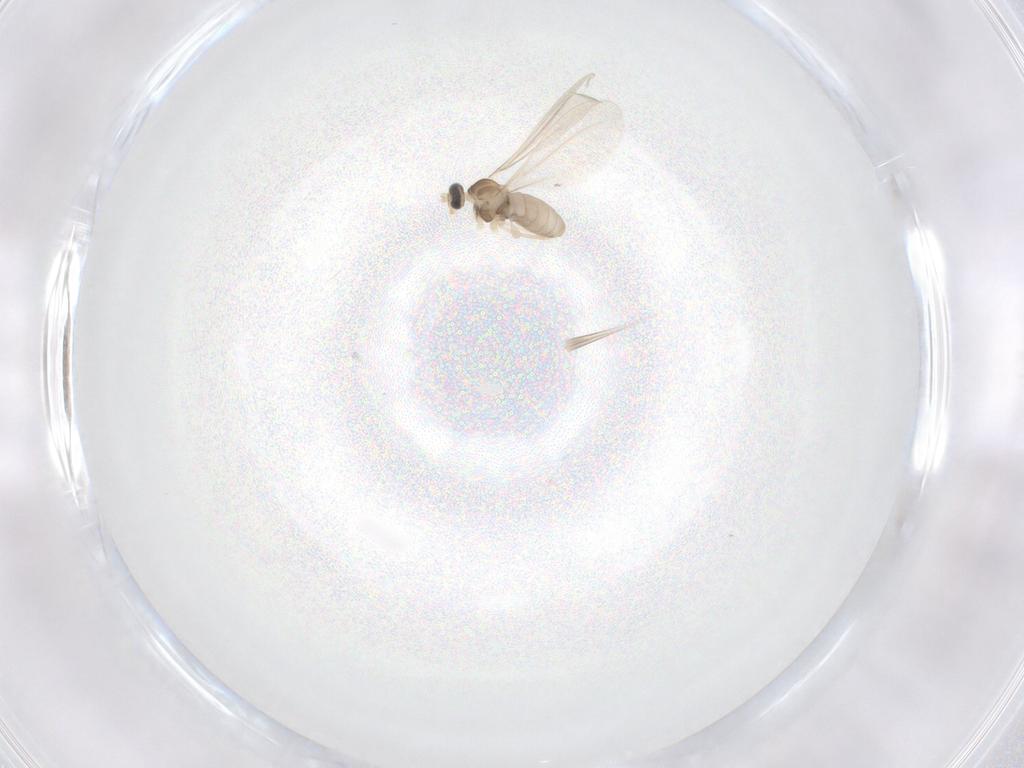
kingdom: Animalia
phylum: Arthropoda
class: Insecta
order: Diptera
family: Cecidomyiidae
